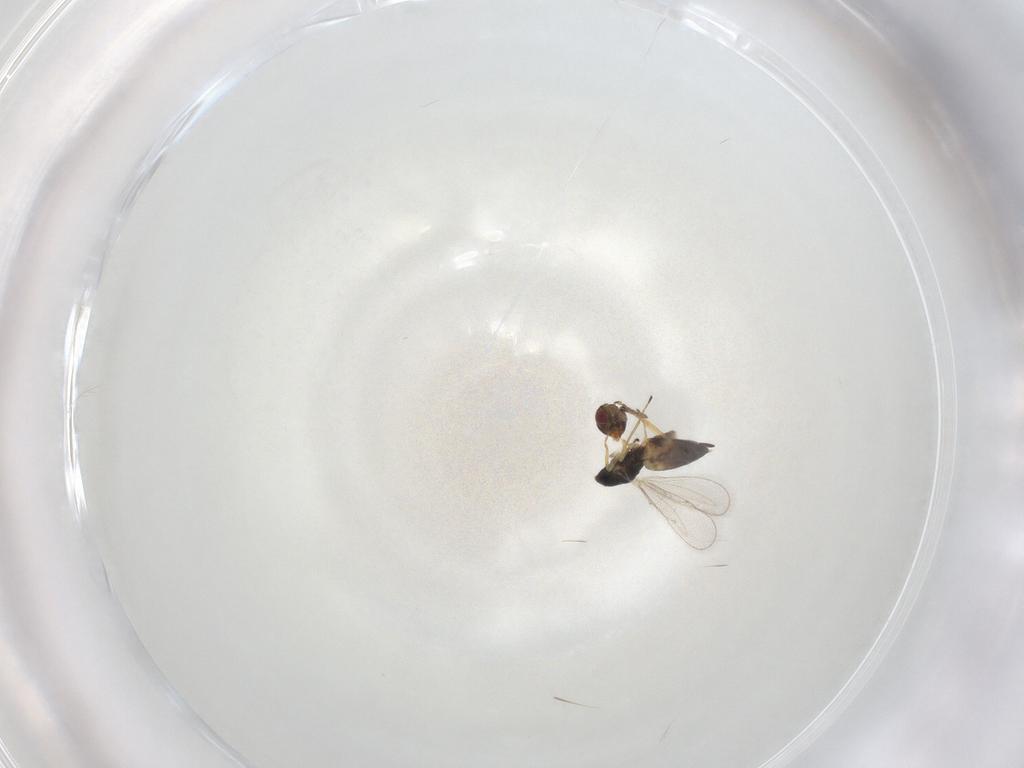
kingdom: Animalia
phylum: Arthropoda
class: Insecta
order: Hymenoptera
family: Eulophidae
